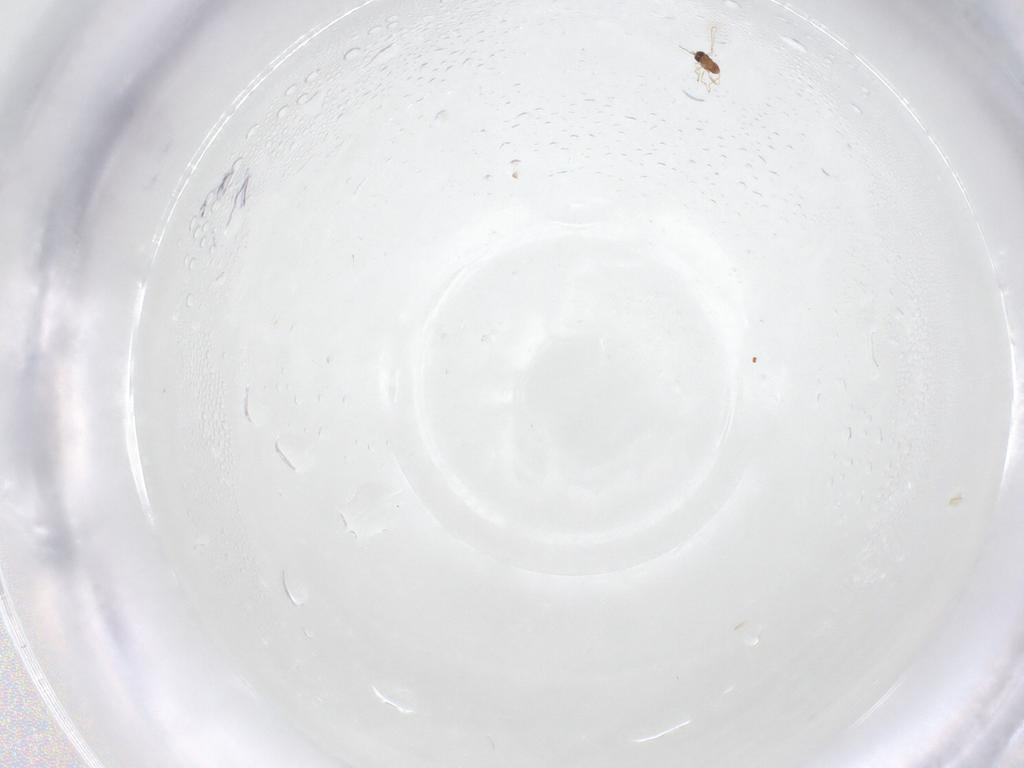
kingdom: Animalia
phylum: Arthropoda
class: Insecta
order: Hymenoptera
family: Bethylidae
